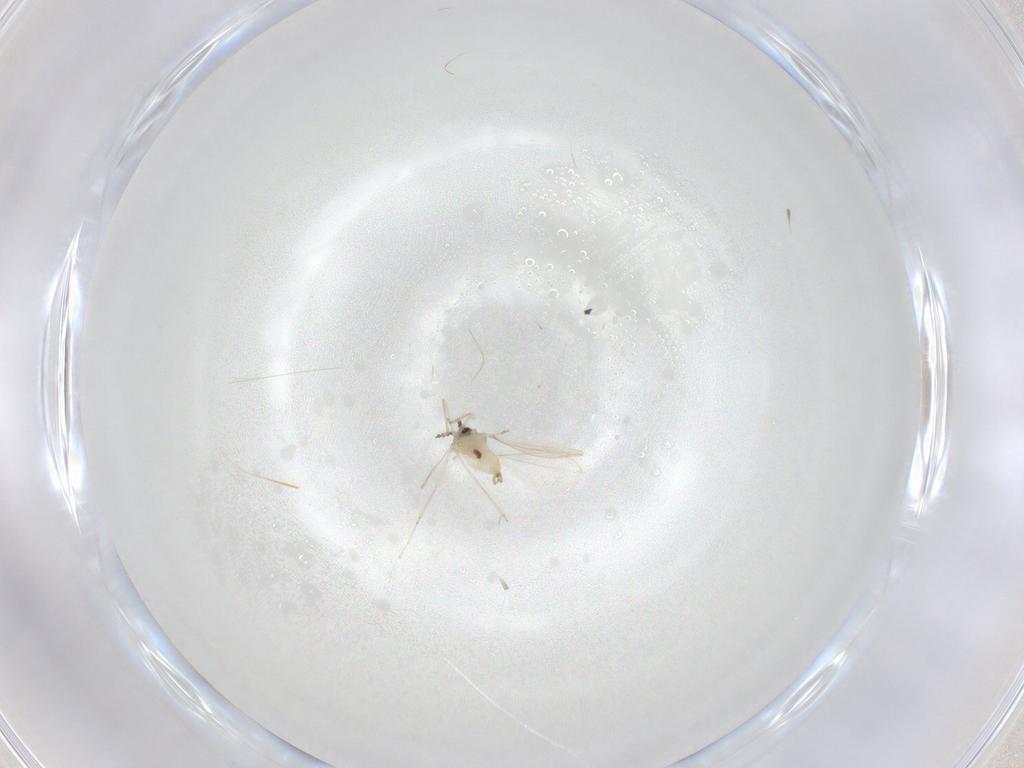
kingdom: Animalia
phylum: Arthropoda
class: Insecta
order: Diptera
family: Phoridae
